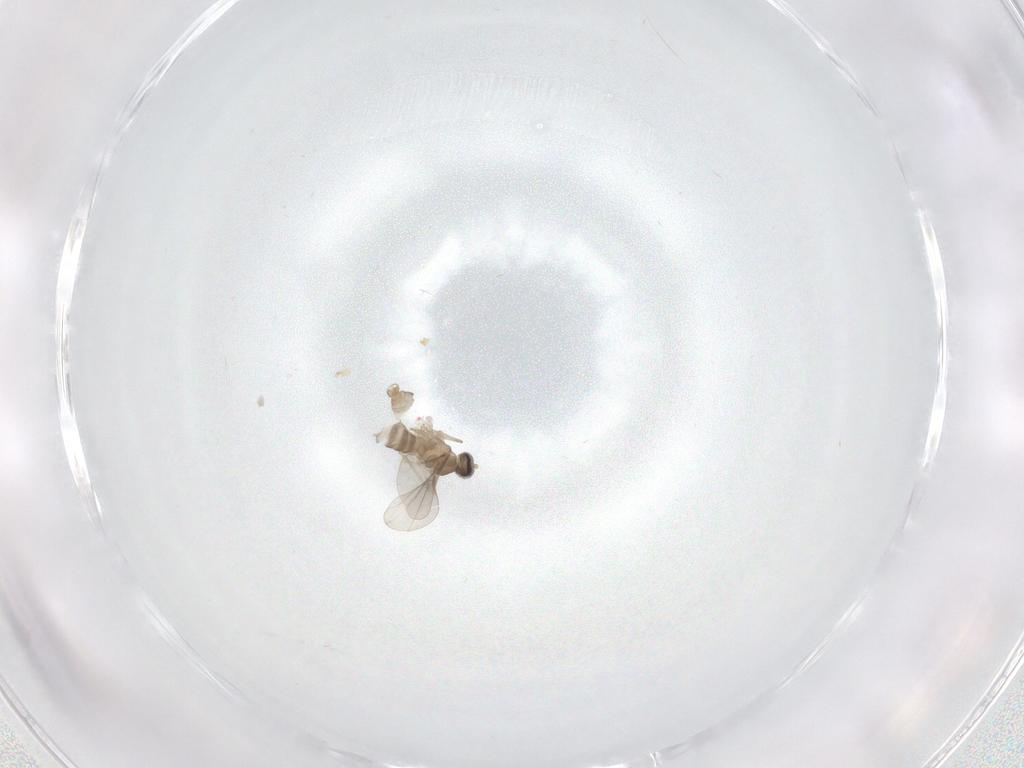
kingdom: Animalia
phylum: Arthropoda
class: Insecta
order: Diptera
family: Cecidomyiidae
